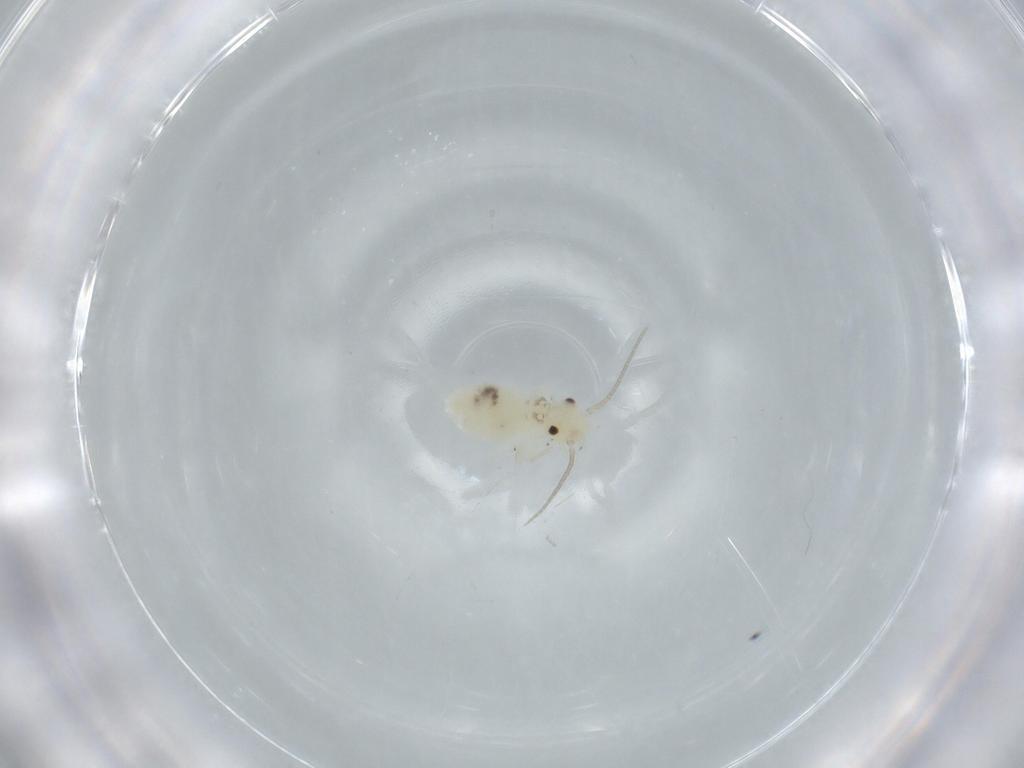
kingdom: Animalia
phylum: Arthropoda
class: Insecta
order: Psocodea
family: Caeciliusidae
